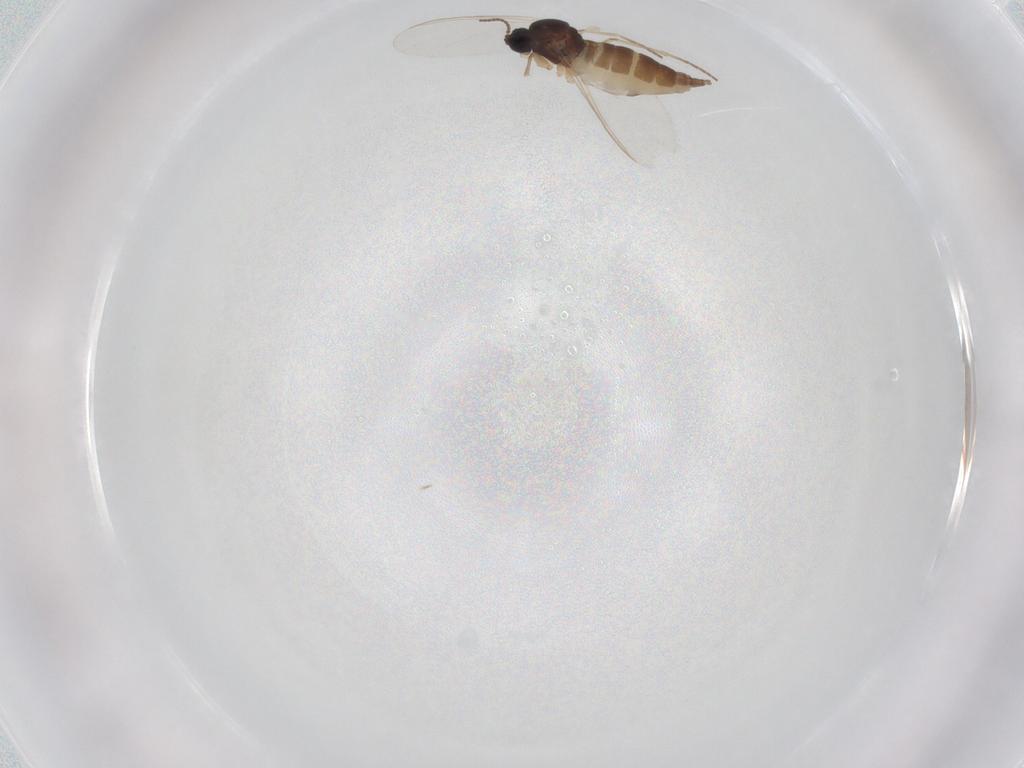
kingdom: Animalia
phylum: Arthropoda
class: Insecta
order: Diptera
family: Sciaridae
